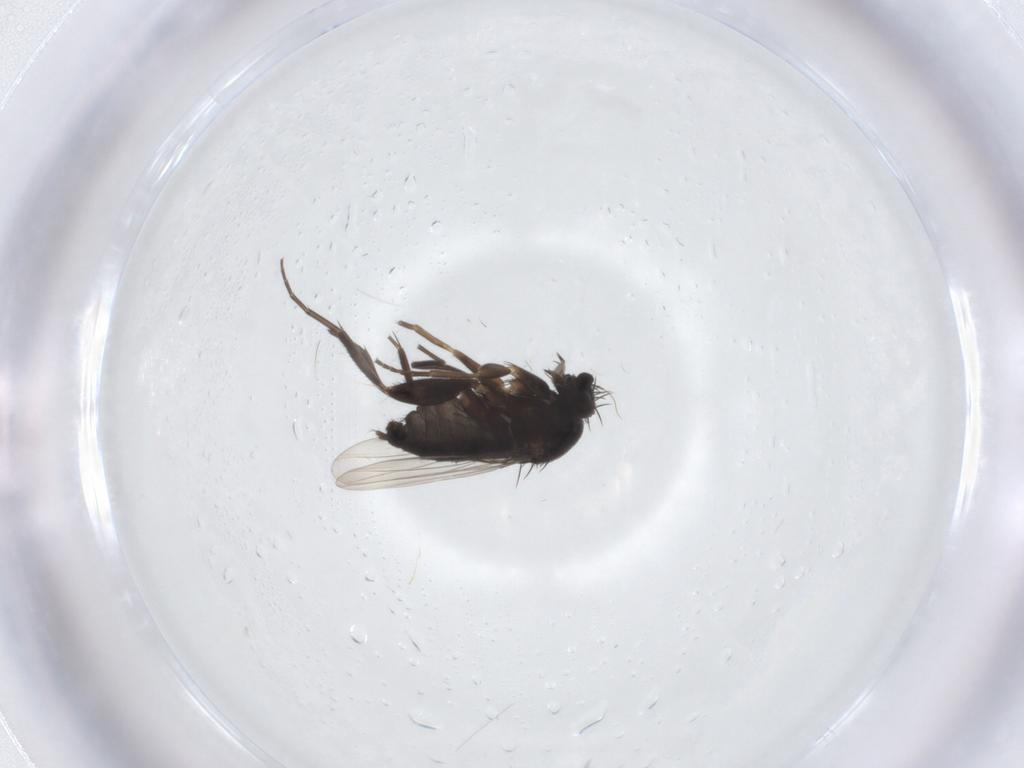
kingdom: Animalia
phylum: Arthropoda
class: Insecta
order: Diptera
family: Phoridae
